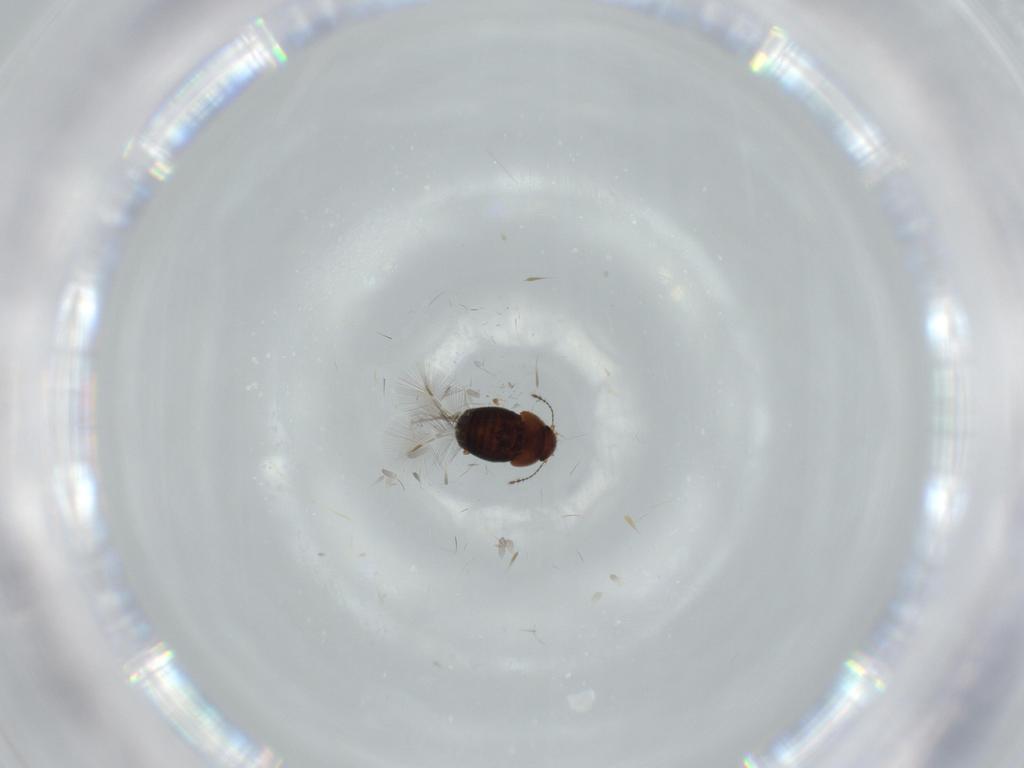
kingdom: Animalia
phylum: Arthropoda
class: Insecta
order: Coleoptera
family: Ptiliidae
